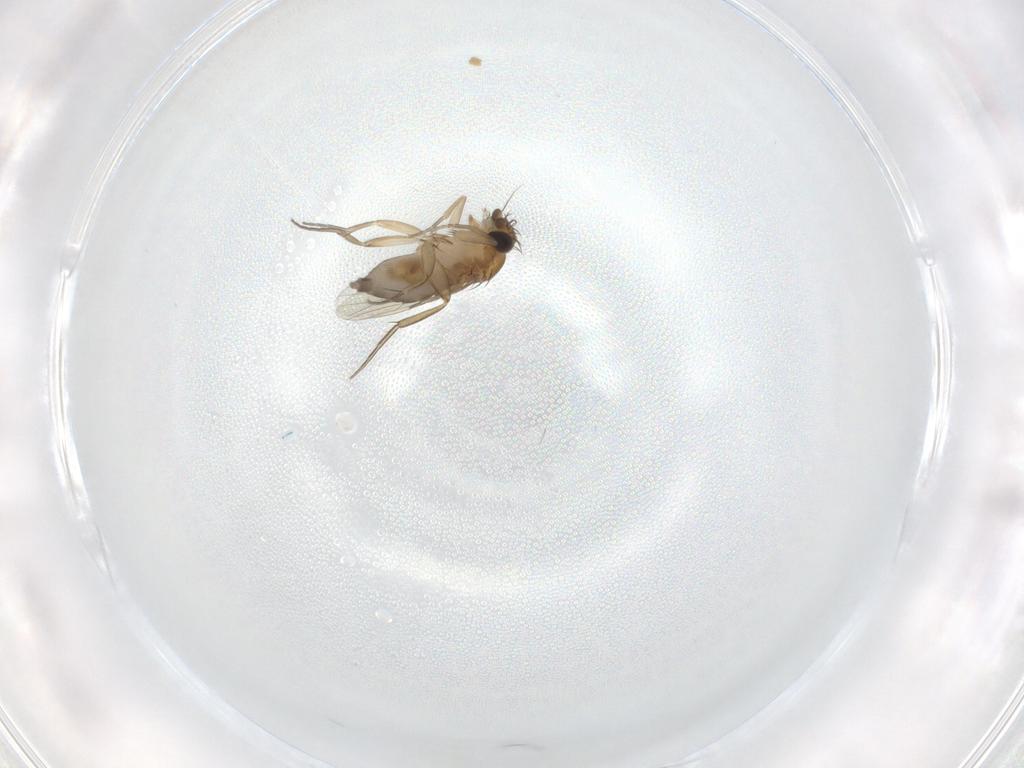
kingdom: Animalia
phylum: Arthropoda
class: Insecta
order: Diptera
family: Phoridae
